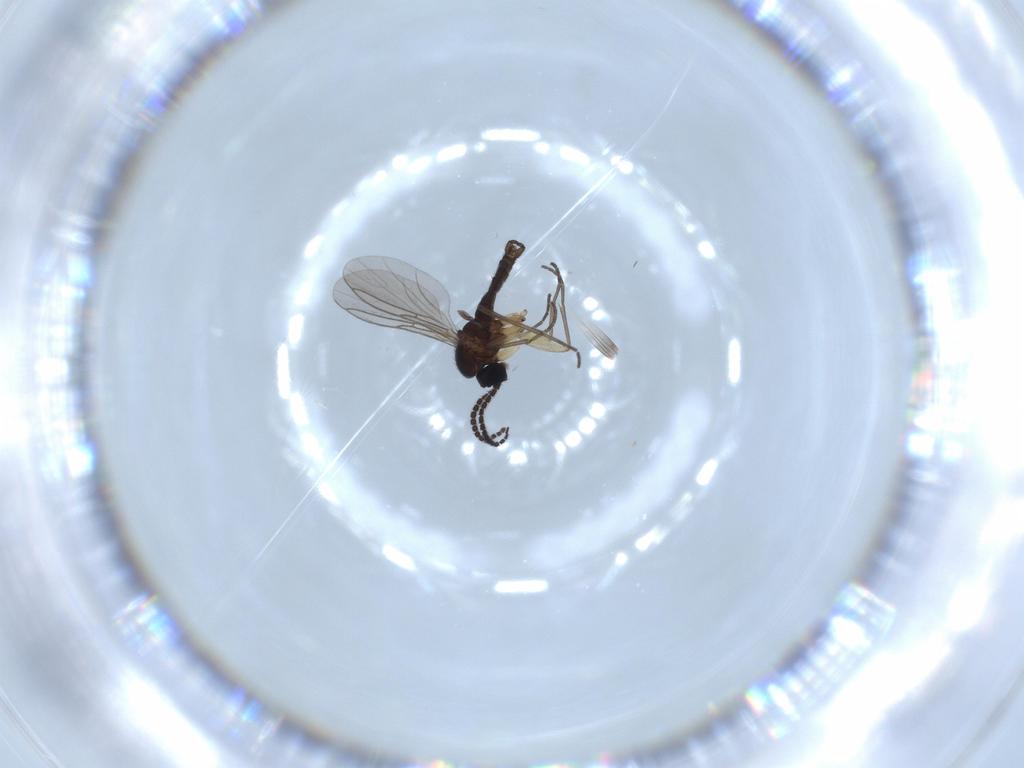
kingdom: Animalia
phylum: Arthropoda
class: Insecta
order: Diptera
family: Sciaridae
